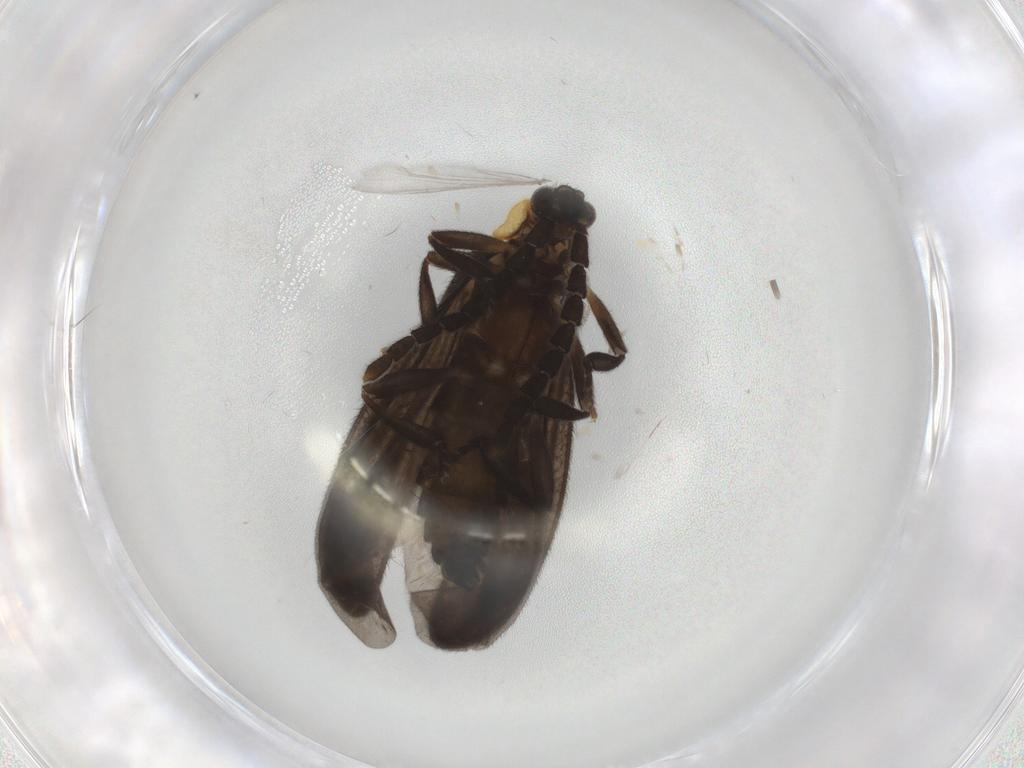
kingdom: Animalia
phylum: Arthropoda
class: Insecta
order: Coleoptera
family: Lycidae
